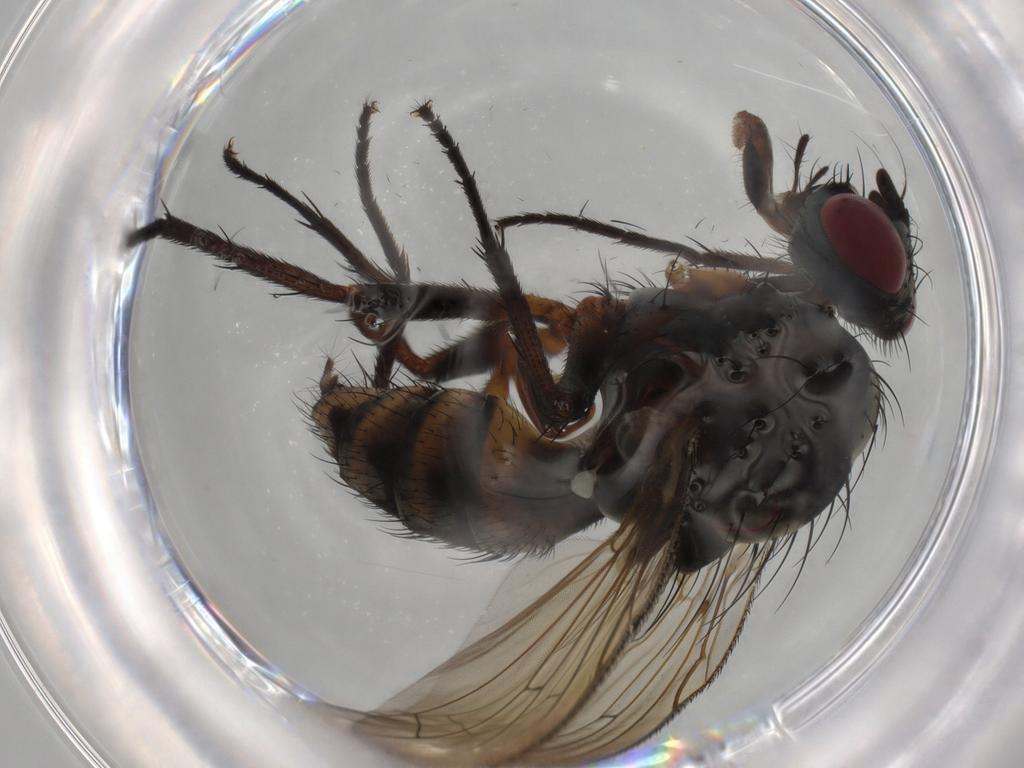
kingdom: Animalia
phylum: Arthropoda
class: Insecta
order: Diptera
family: Anthomyiidae
